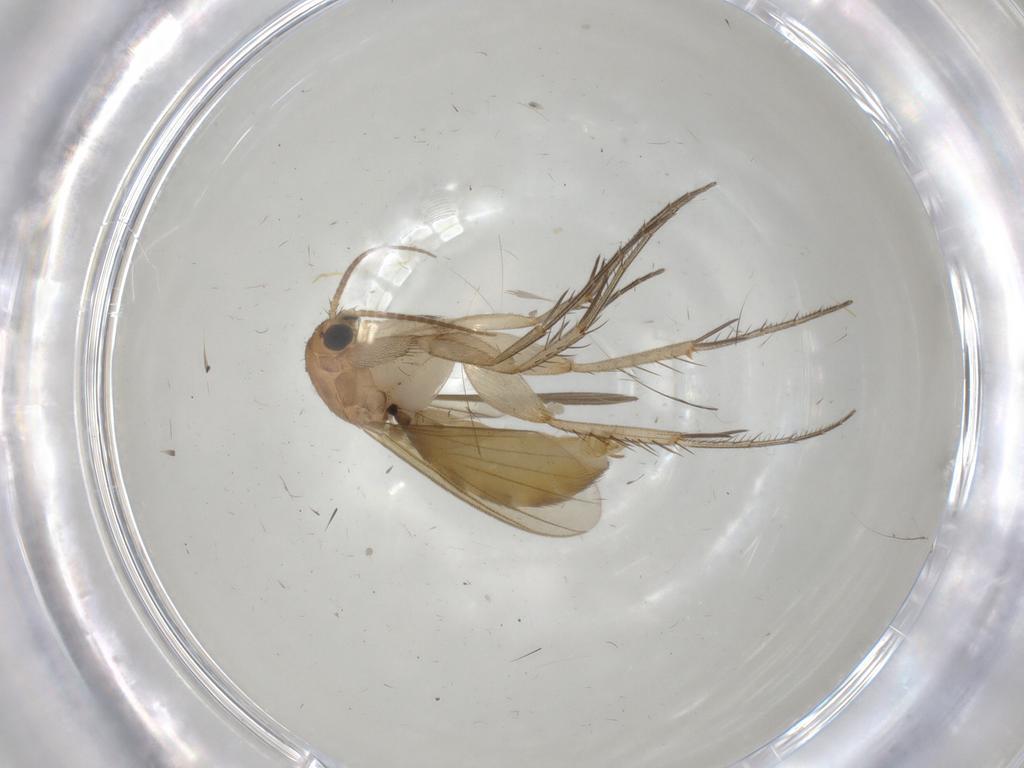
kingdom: Animalia
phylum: Arthropoda
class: Insecta
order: Diptera
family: Mycetophilidae
